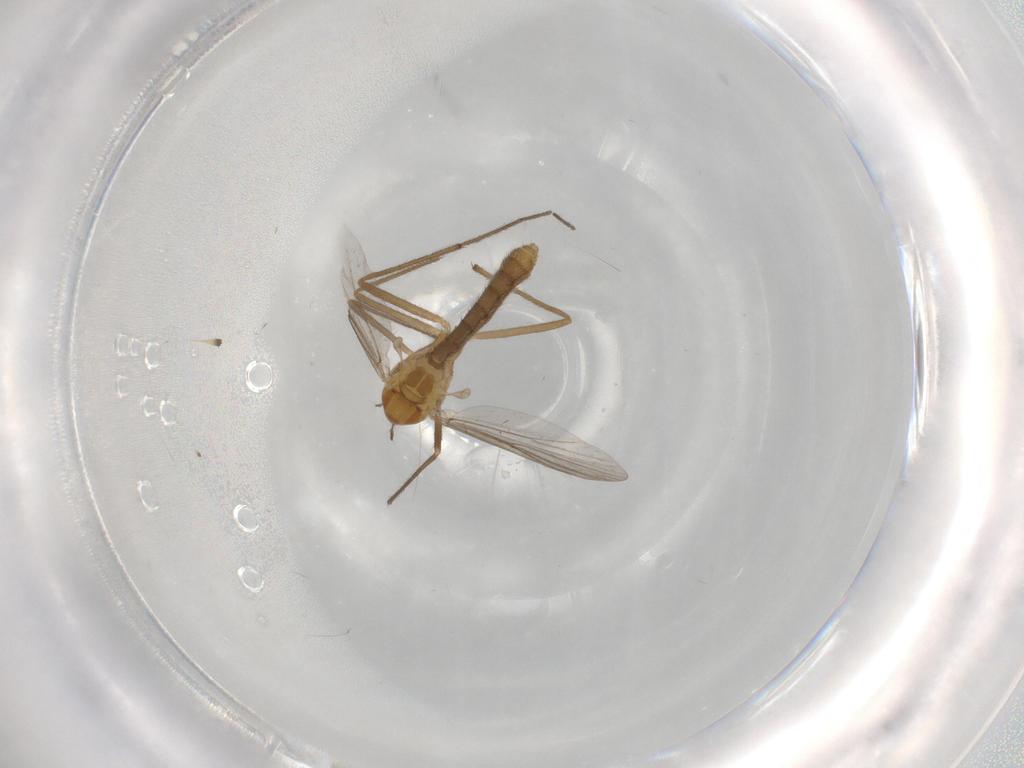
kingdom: Animalia
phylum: Arthropoda
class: Insecta
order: Diptera
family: Chironomidae
